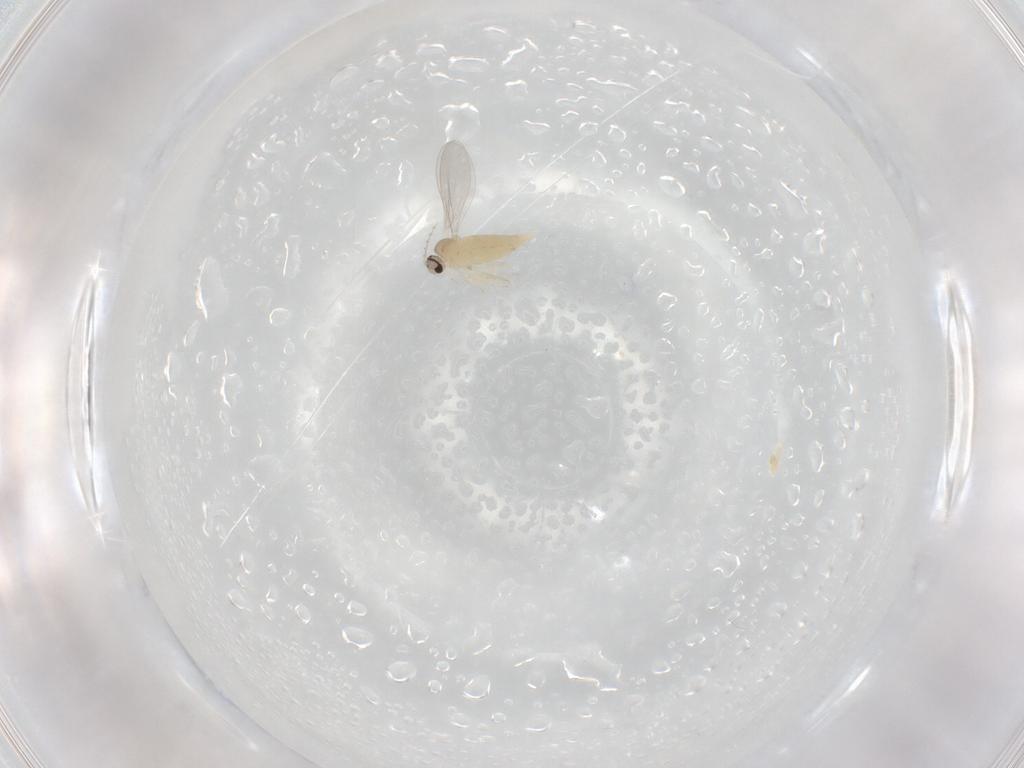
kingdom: Animalia
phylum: Arthropoda
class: Insecta
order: Diptera
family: Cecidomyiidae
